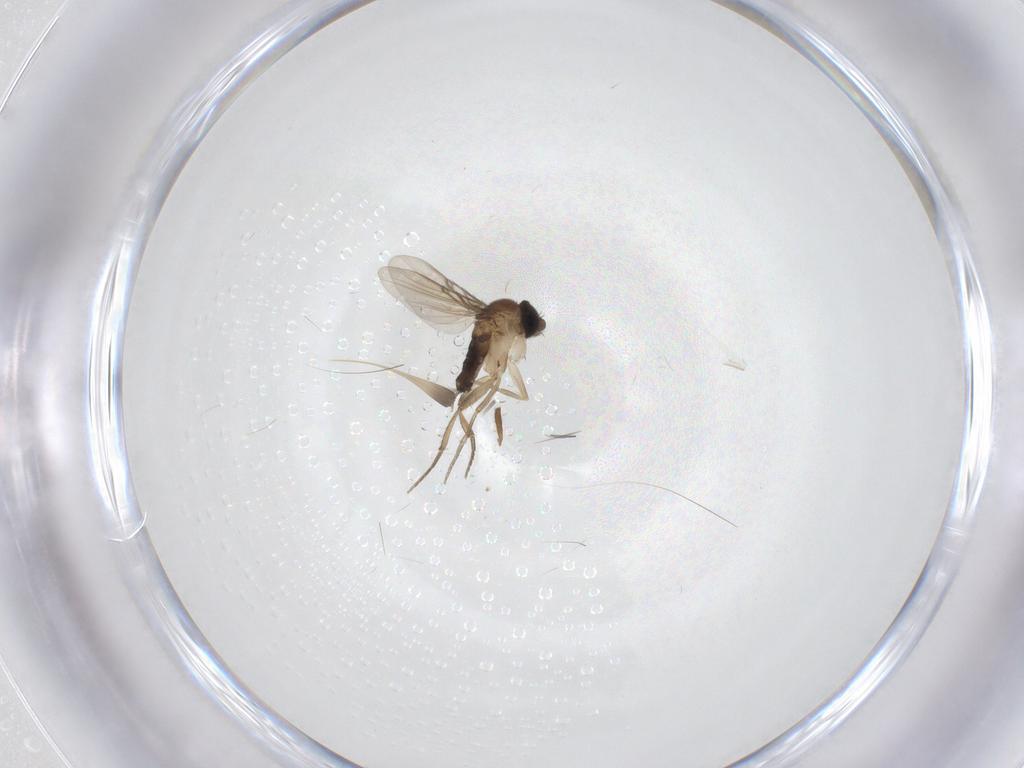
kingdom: Animalia
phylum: Arthropoda
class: Insecta
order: Diptera
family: Phoridae
